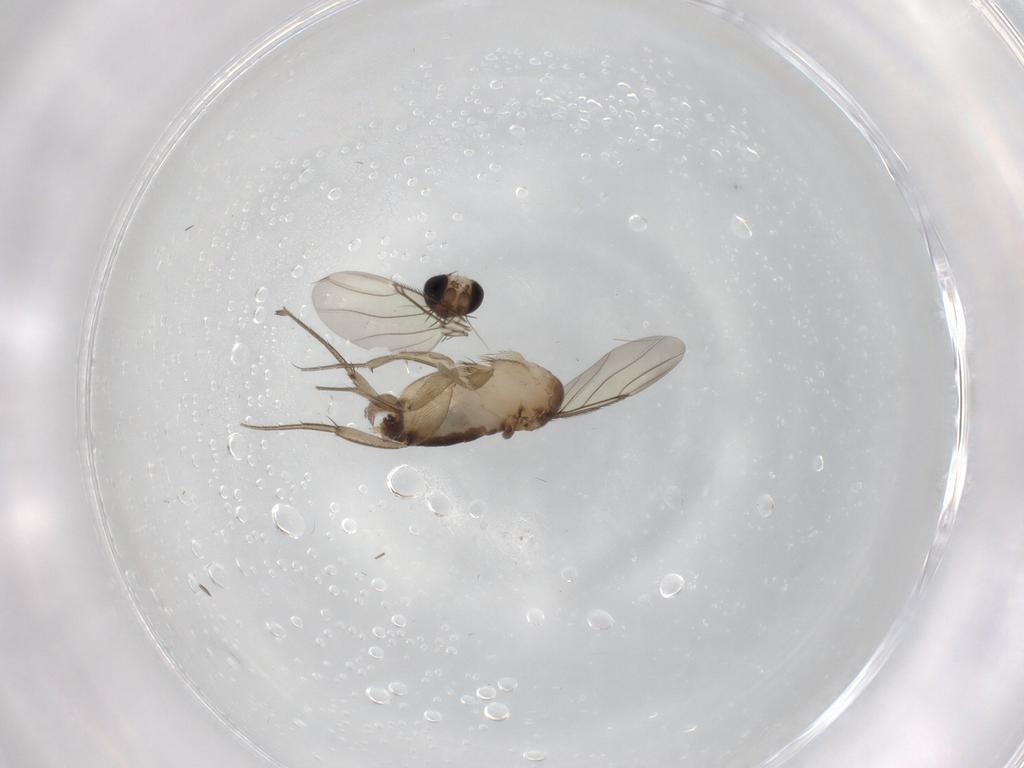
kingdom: Animalia
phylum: Arthropoda
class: Insecta
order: Diptera
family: Phoridae
